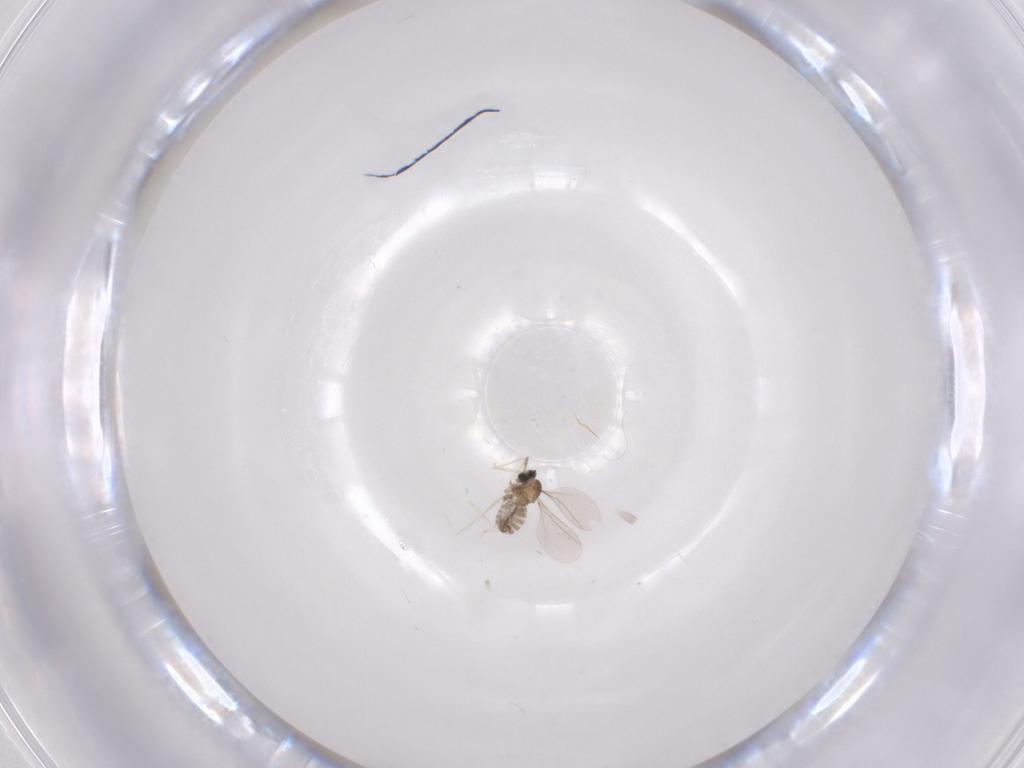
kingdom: Animalia
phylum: Arthropoda
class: Insecta
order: Diptera
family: Cecidomyiidae
